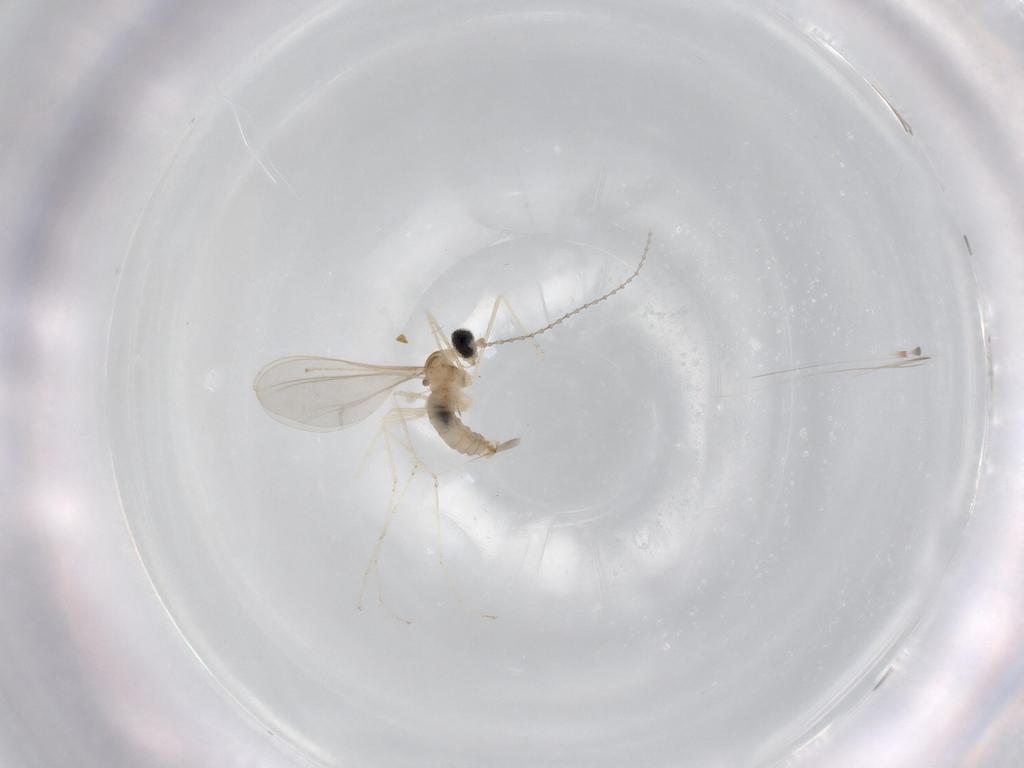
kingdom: Animalia
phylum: Arthropoda
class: Insecta
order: Diptera
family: Cecidomyiidae
